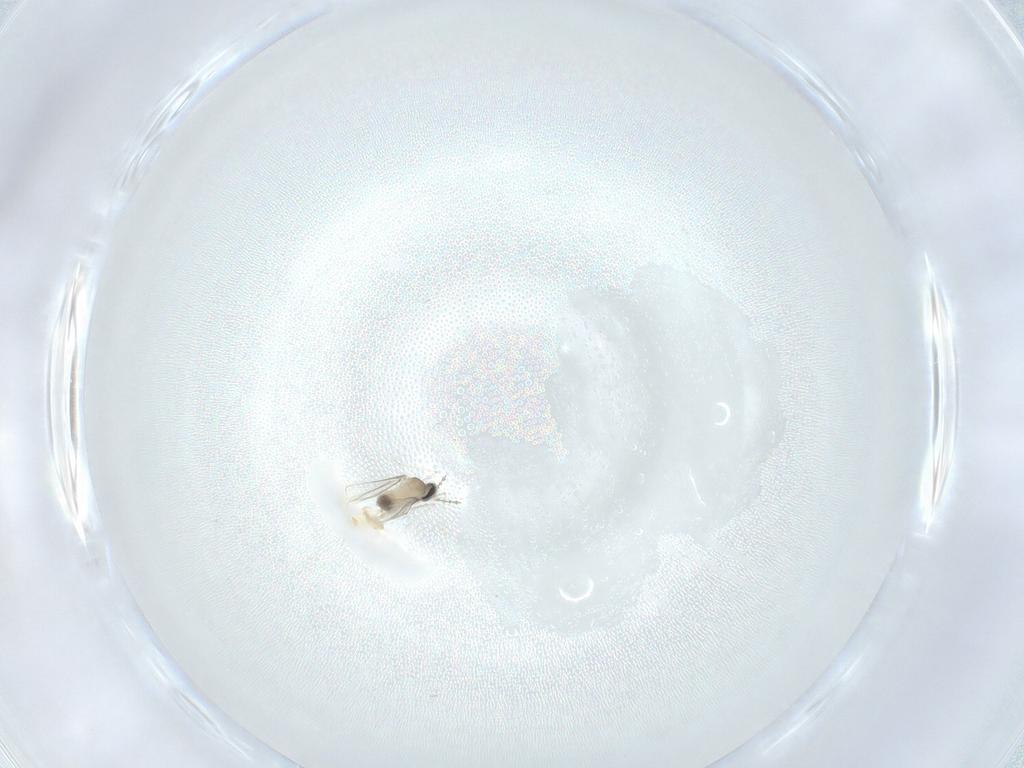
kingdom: Animalia
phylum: Arthropoda
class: Insecta
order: Diptera
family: Cecidomyiidae
